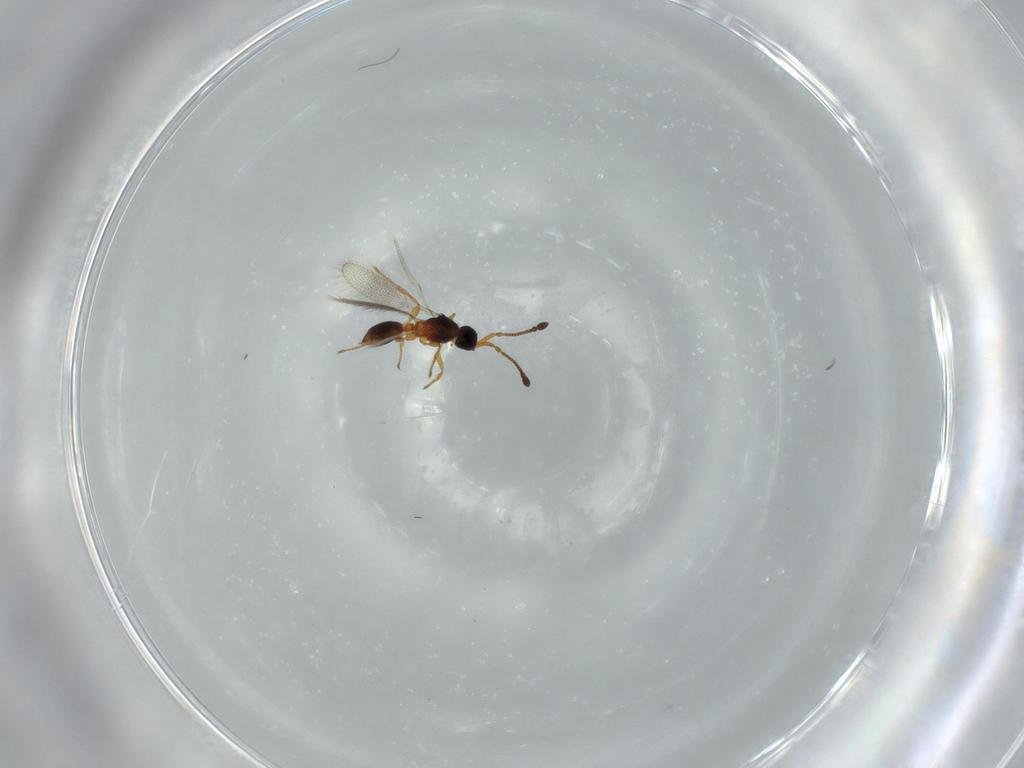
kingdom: Animalia
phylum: Arthropoda
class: Insecta
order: Hymenoptera
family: Diapriidae
